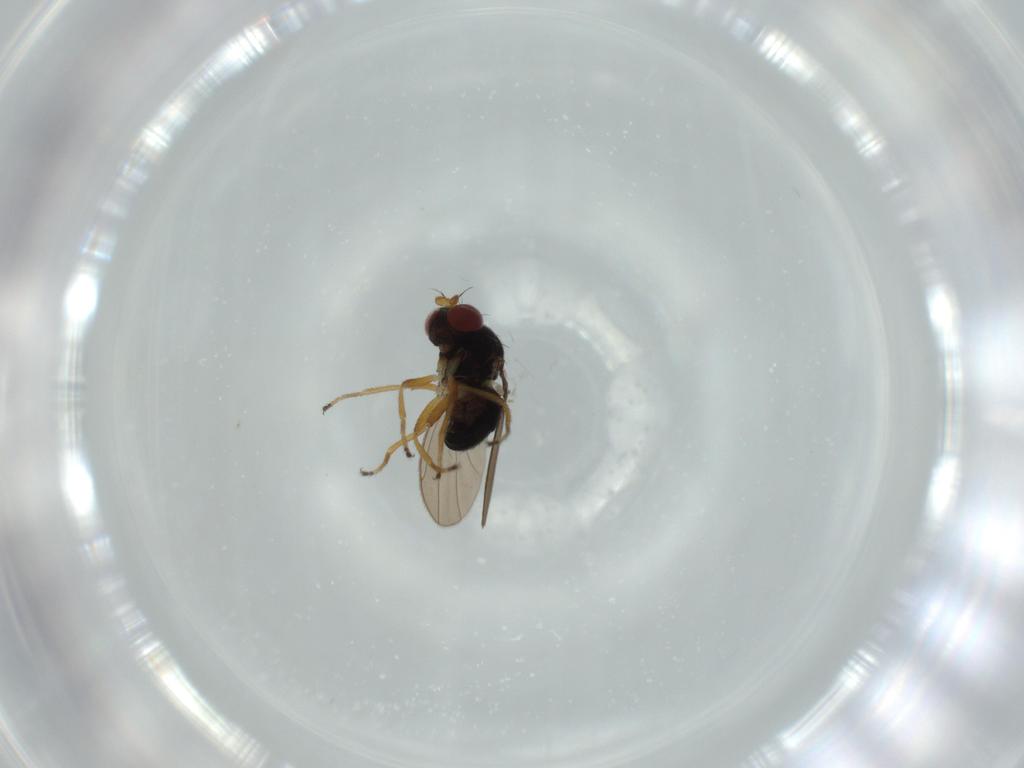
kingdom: Animalia
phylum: Arthropoda
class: Insecta
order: Diptera
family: Ephydridae
